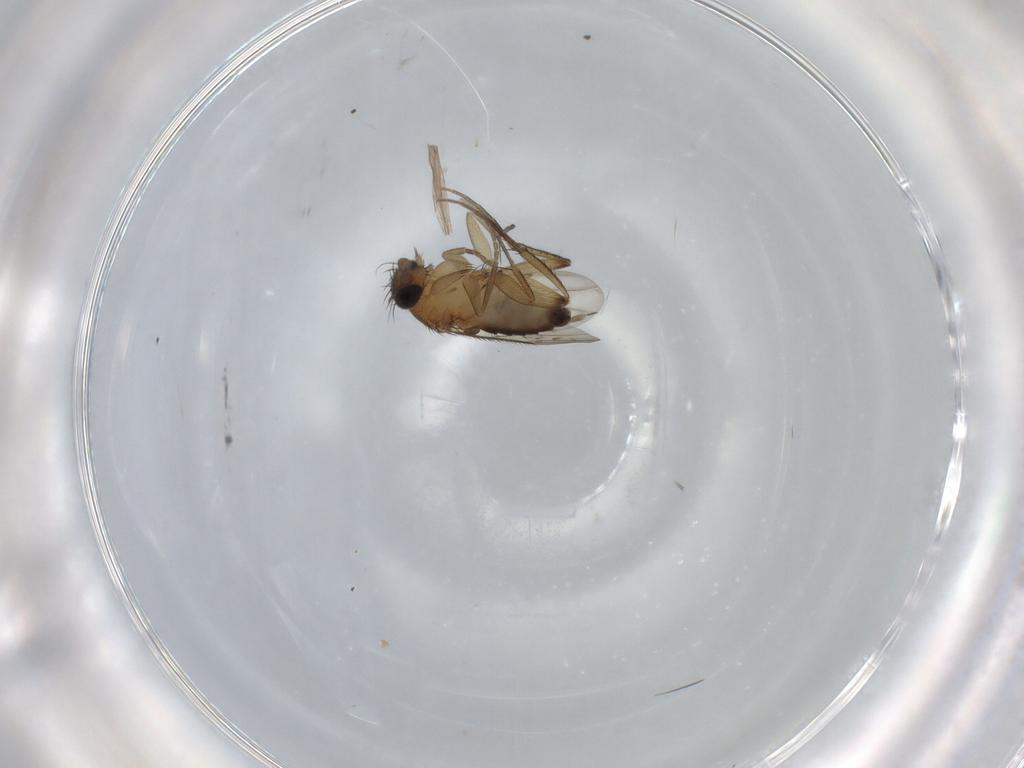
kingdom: Animalia
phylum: Arthropoda
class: Insecta
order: Diptera
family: Phoridae
